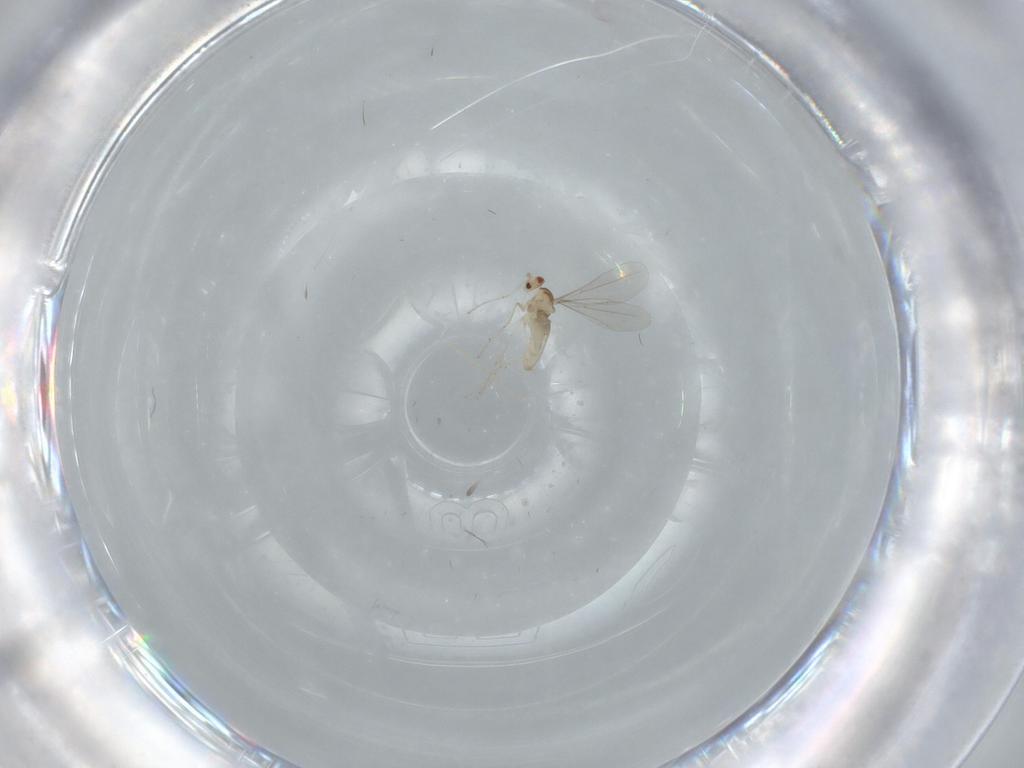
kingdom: Animalia
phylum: Arthropoda
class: Insecta
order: Diptera
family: Cecidomyiidae
